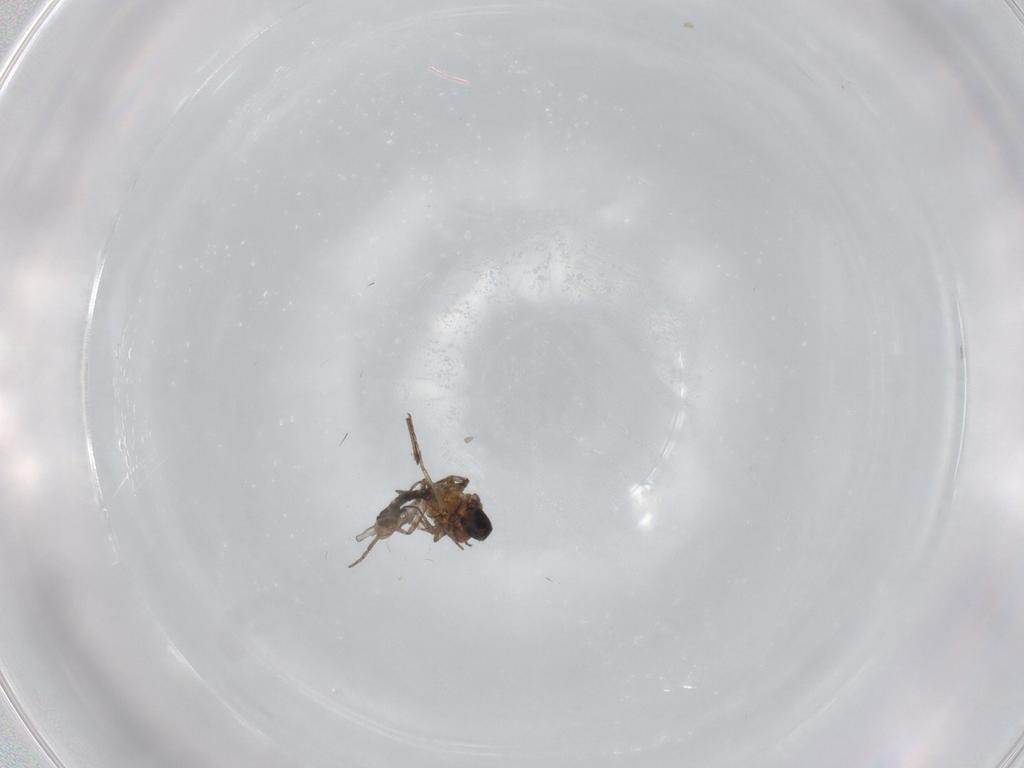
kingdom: Animalia
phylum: Arthropoda
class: Insecta
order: Diptera
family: Ceratopogonidae
